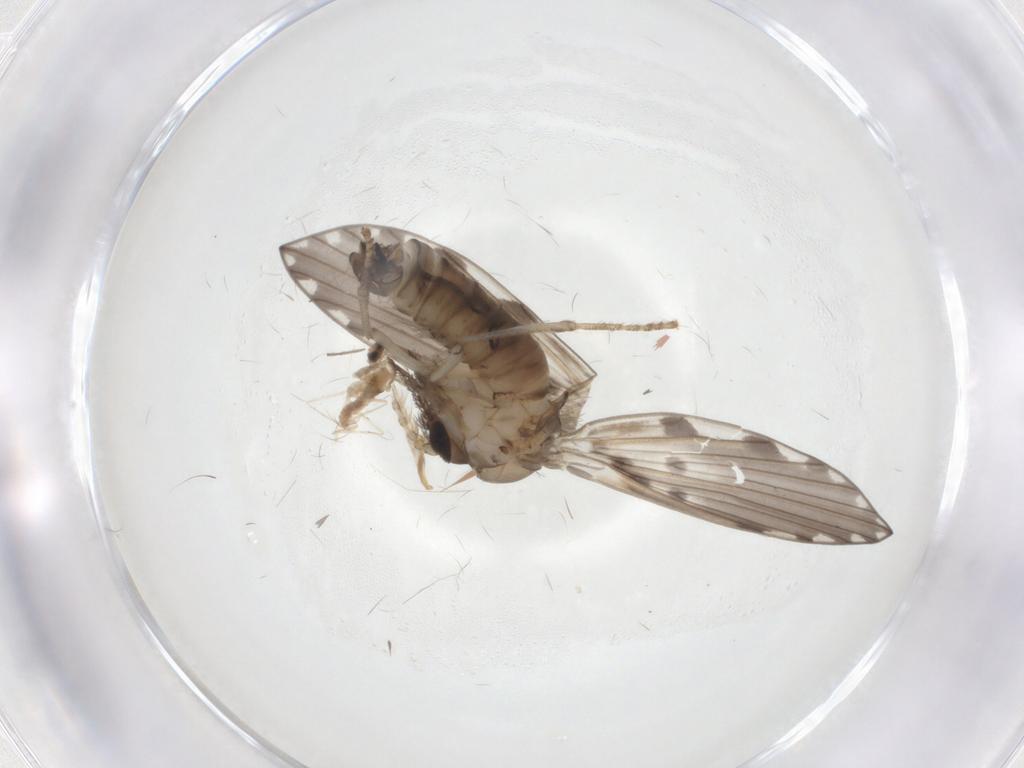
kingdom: Animalia
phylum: Arthropoda
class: Insecta
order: Diptera
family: Psychodidae
